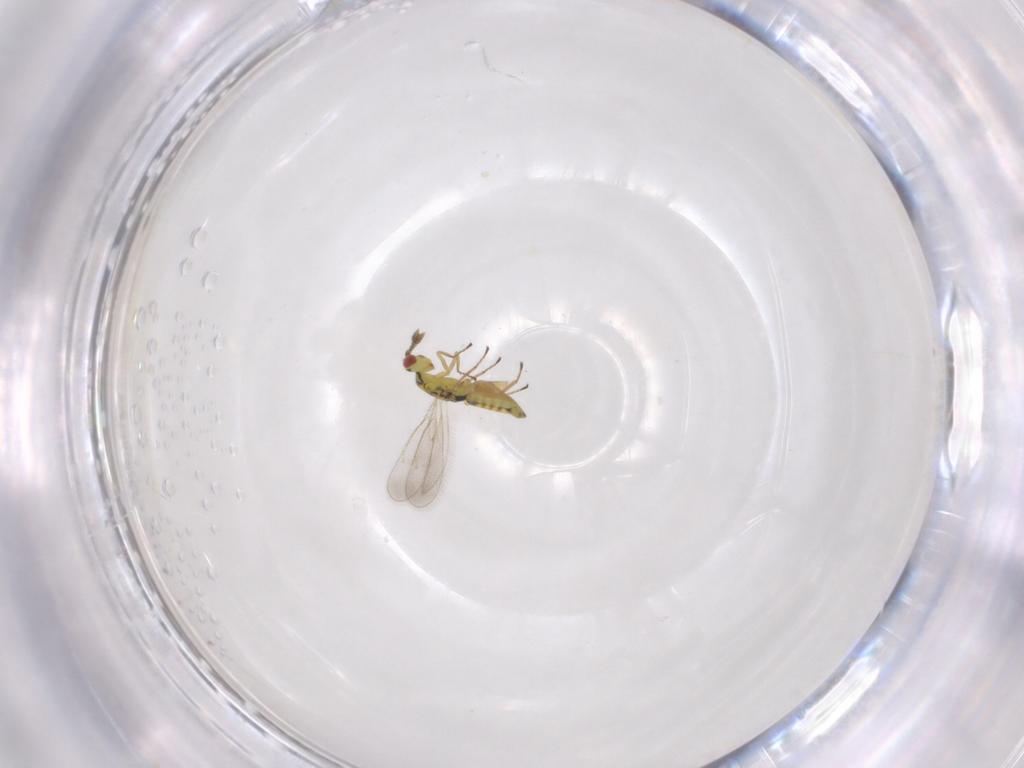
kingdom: Animalia
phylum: Arthropoda
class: Insecta
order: Hymenoptera
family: Eulophidae
